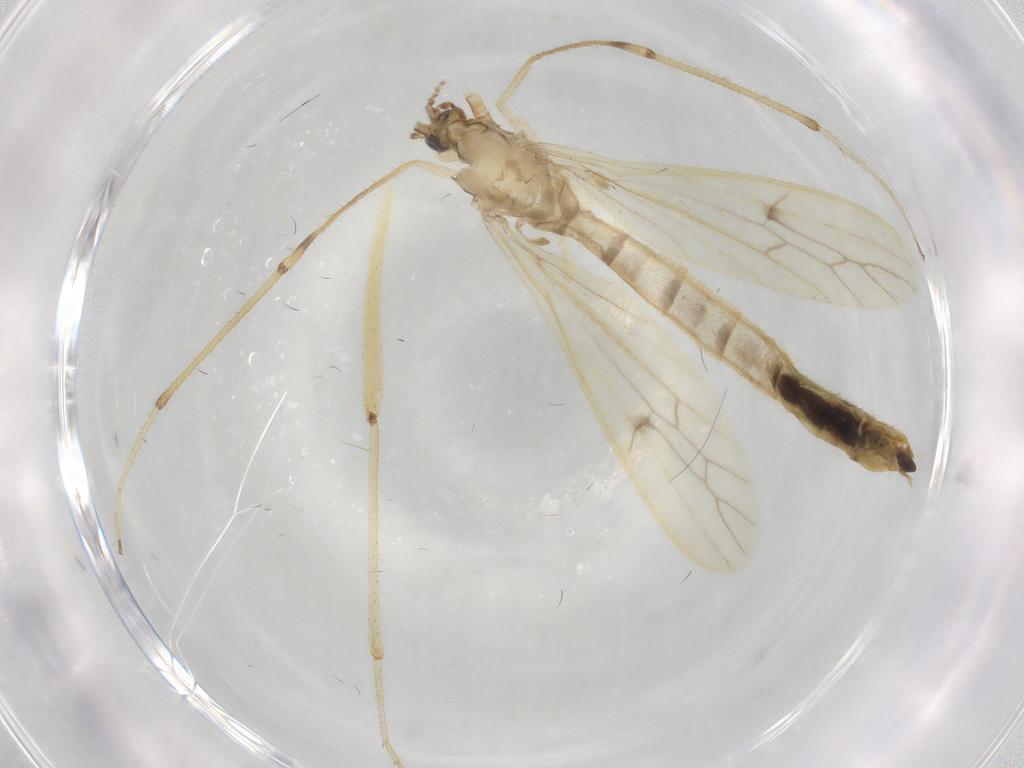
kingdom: Animalia
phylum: Arthropoda
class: Insecta
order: Diptera
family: Limoniidae
